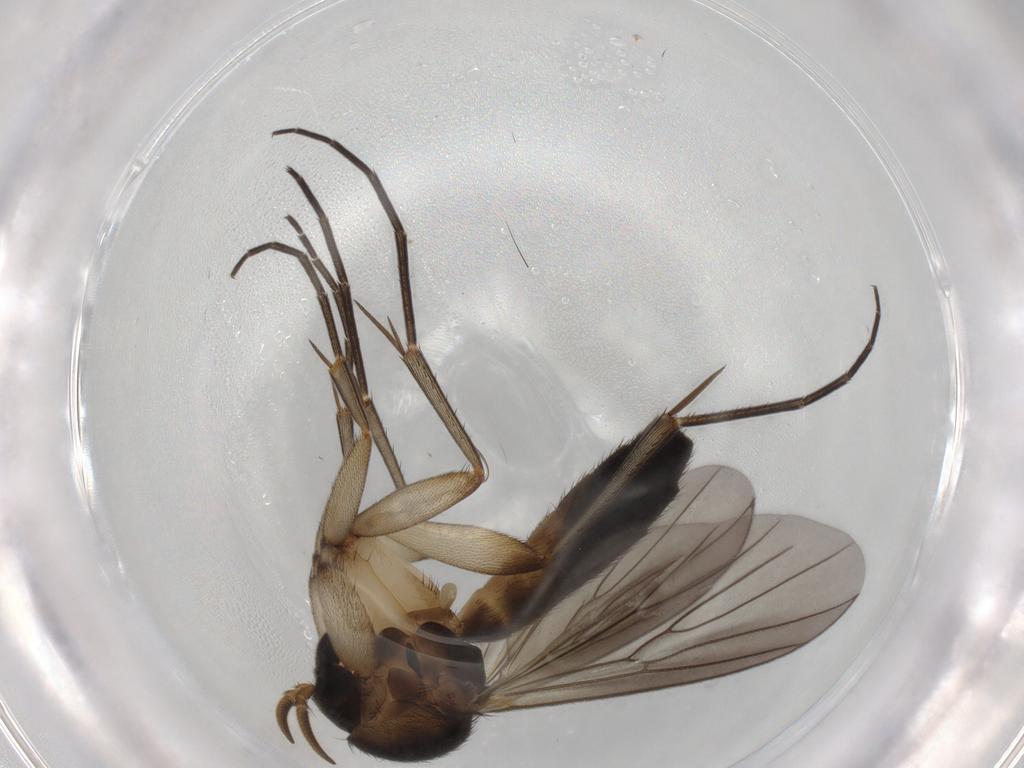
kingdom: Animalia
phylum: Arthropoda
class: Insecta
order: Diptera
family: Mycetophilidae
